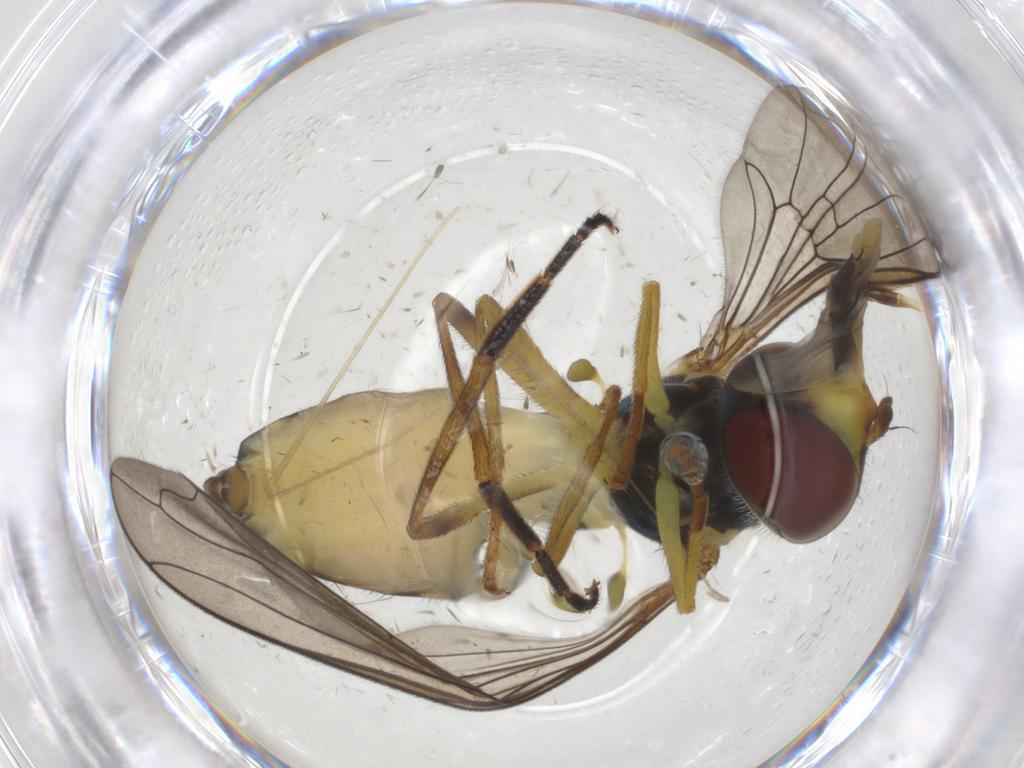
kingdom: Animalia
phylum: Arthropoda
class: Insecta
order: Diptera
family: Syrphidae
